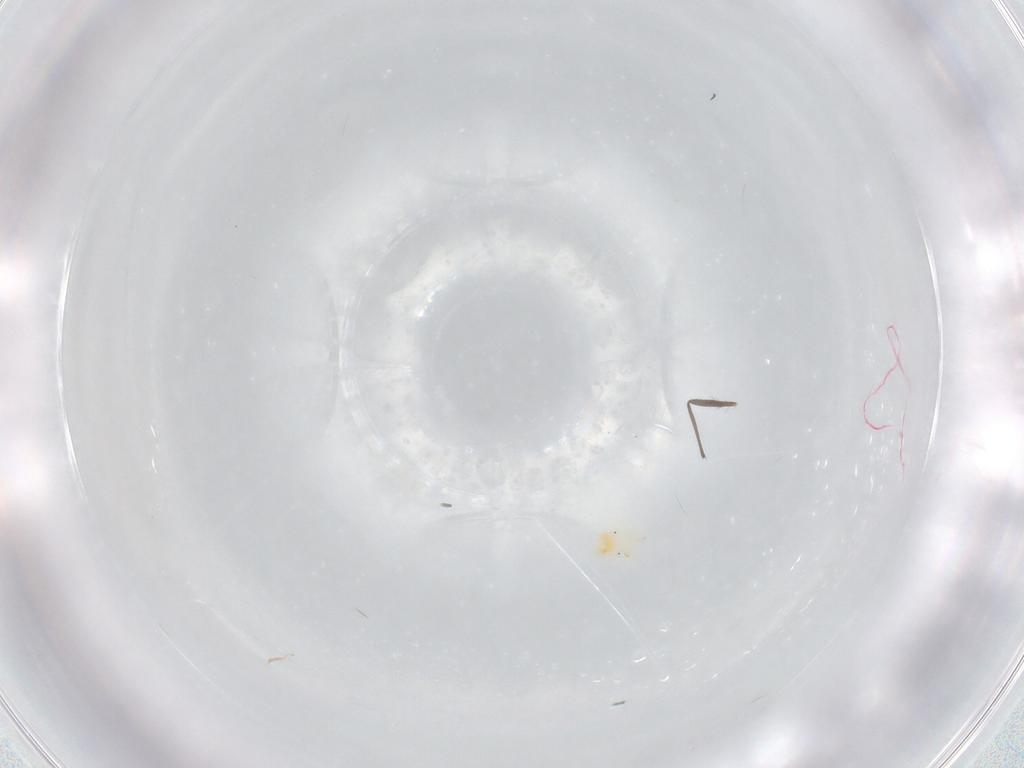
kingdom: Animalia
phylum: Arthropoda
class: Arachnida
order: Trombidiformes
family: Anystidae
